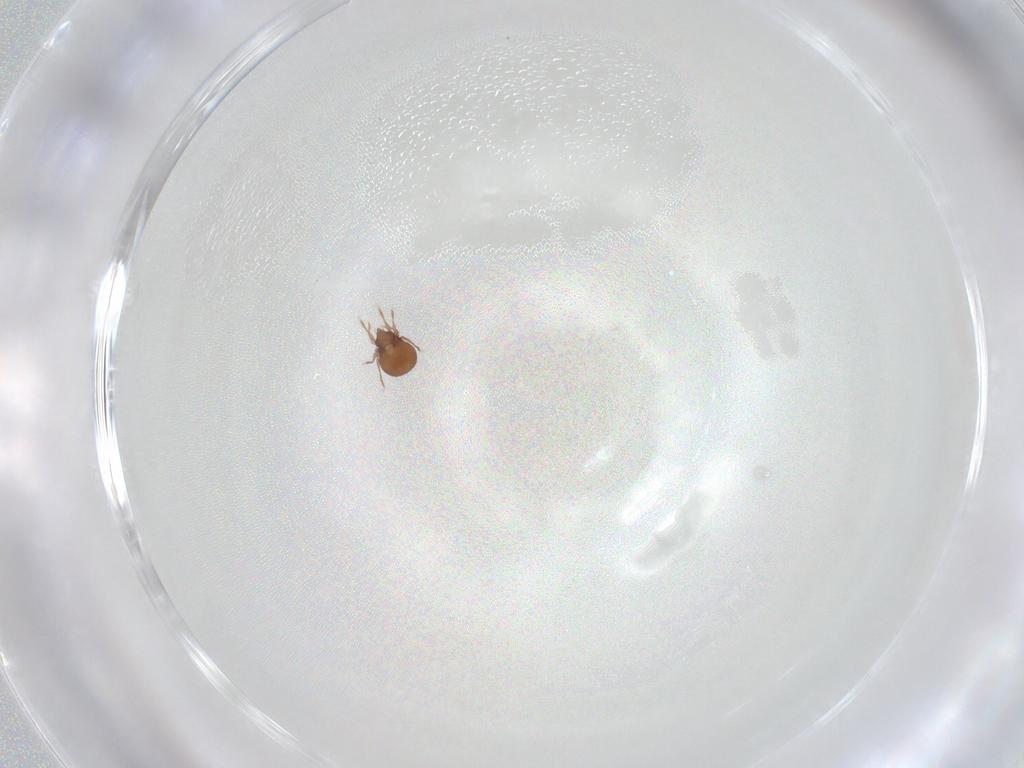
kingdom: Animalia
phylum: Arthropoda
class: Arachnida
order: Sarcoptiformes
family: Oribatulidae
